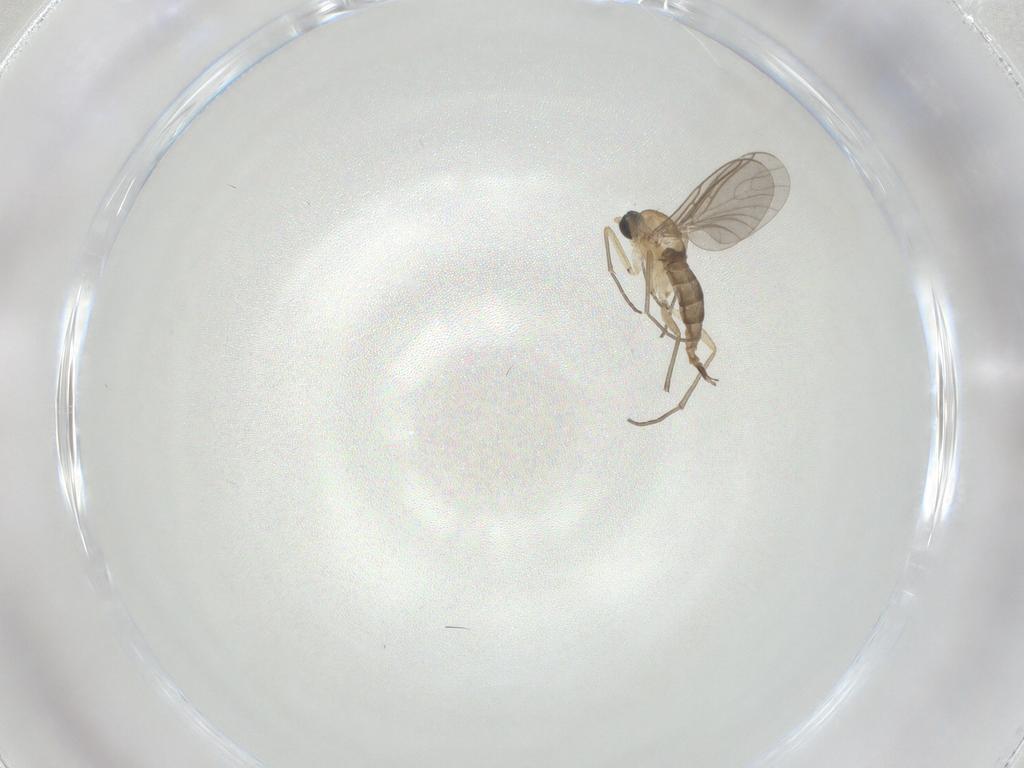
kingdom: Animalia
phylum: Arthropoda
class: Insecta
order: Diptera
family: Sciaridae
